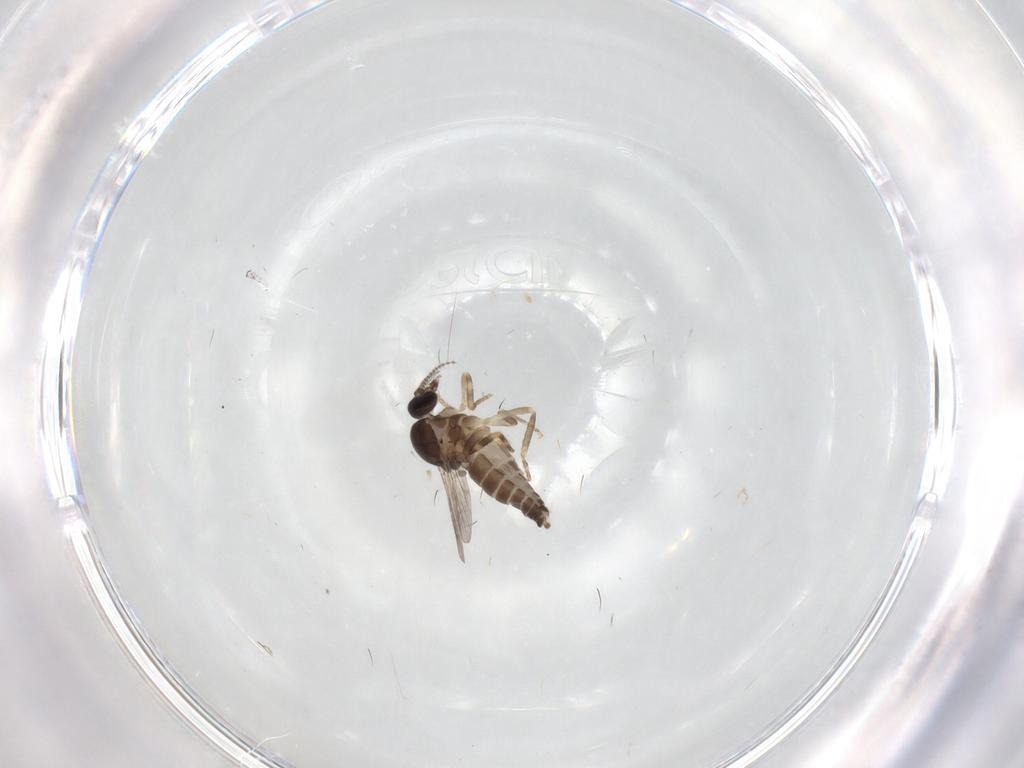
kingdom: Animalia
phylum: Arthropoda
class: Insecta
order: Diptera
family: Ceratopogonidae
